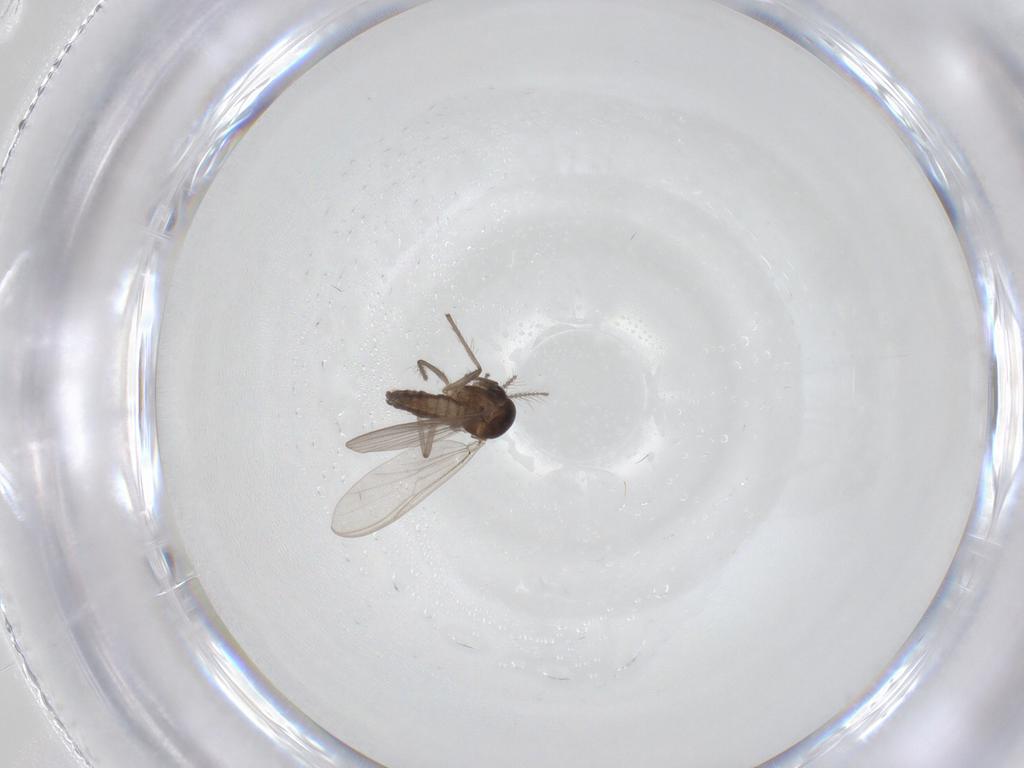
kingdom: Animalia
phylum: Arthropoda
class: Insecta
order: Diptera
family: Chironomidae
